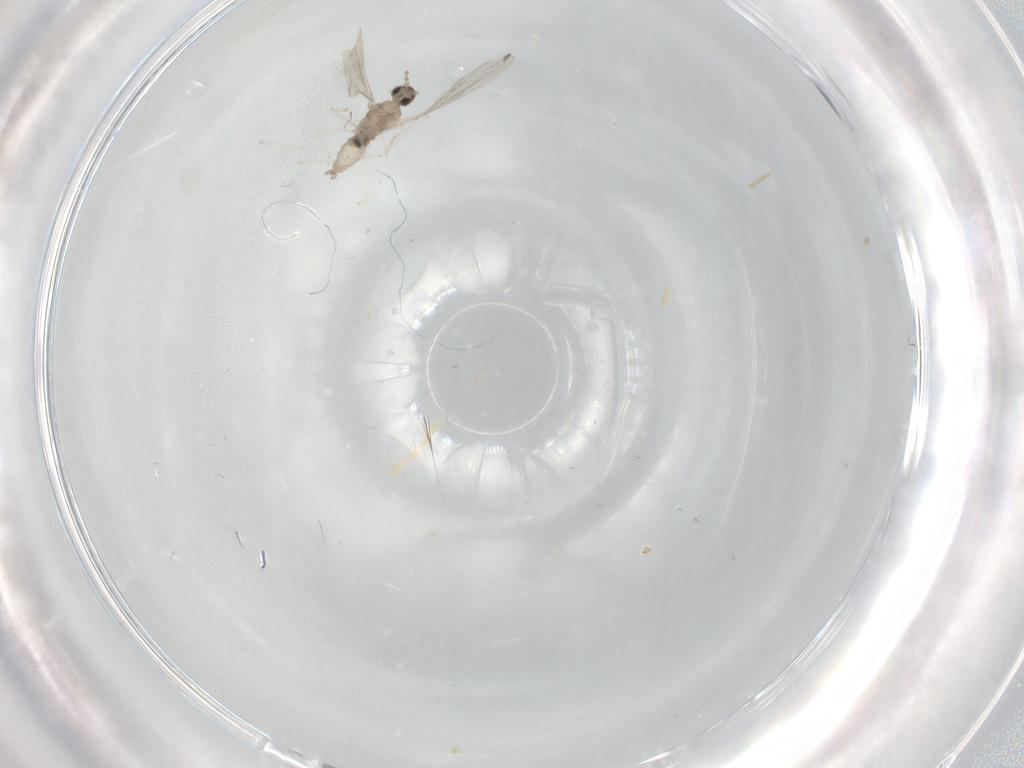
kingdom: Animalia
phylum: Arthropoda
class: Insecta
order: Diptera
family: Cecidomyiidae
